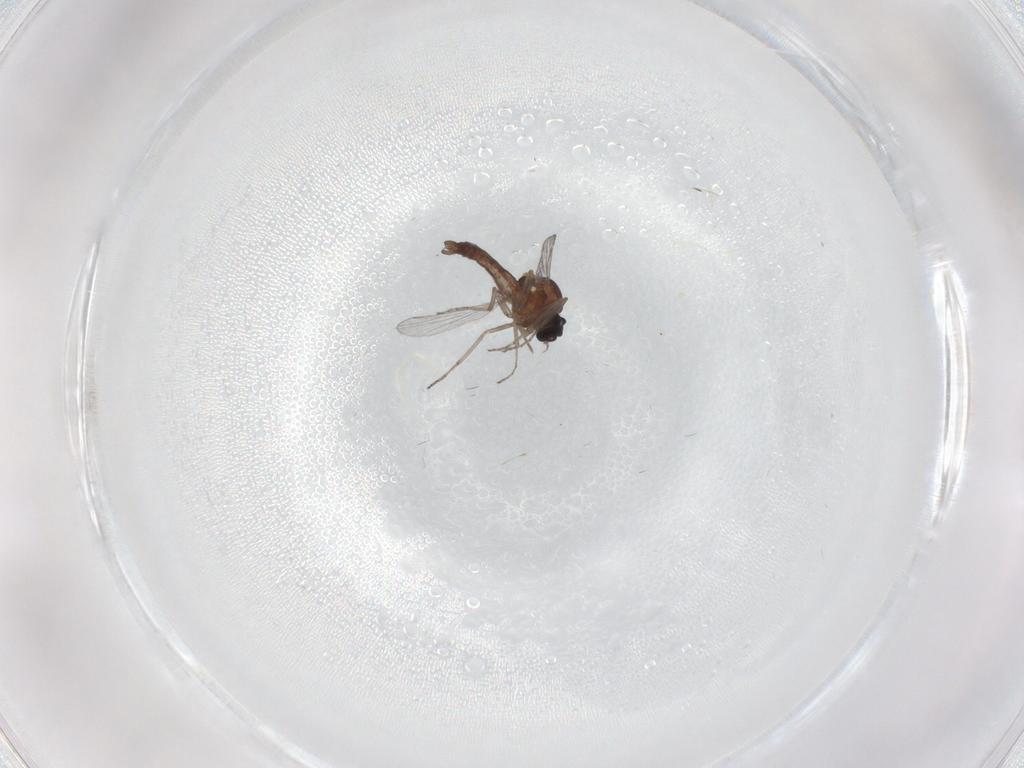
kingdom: Animalia
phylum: Arthropoda
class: Insecta
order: Diptera
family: Ceratopogonidae
